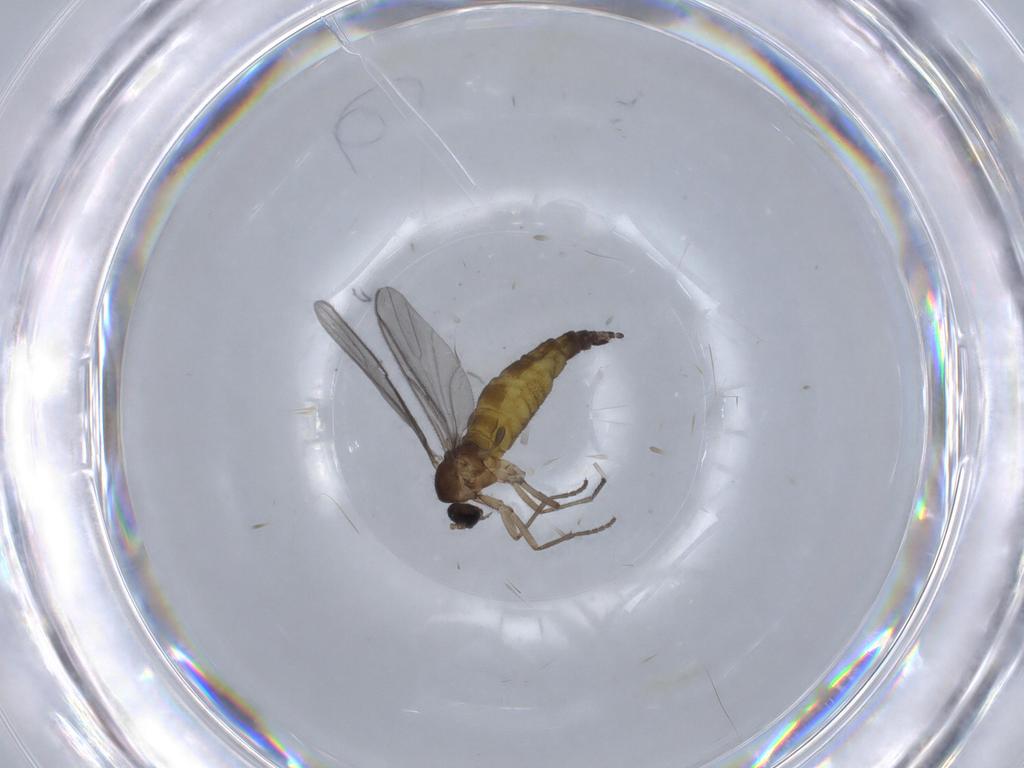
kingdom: Animalia
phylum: Arthropoda
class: Insecta
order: Diptera
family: Sciaridae
